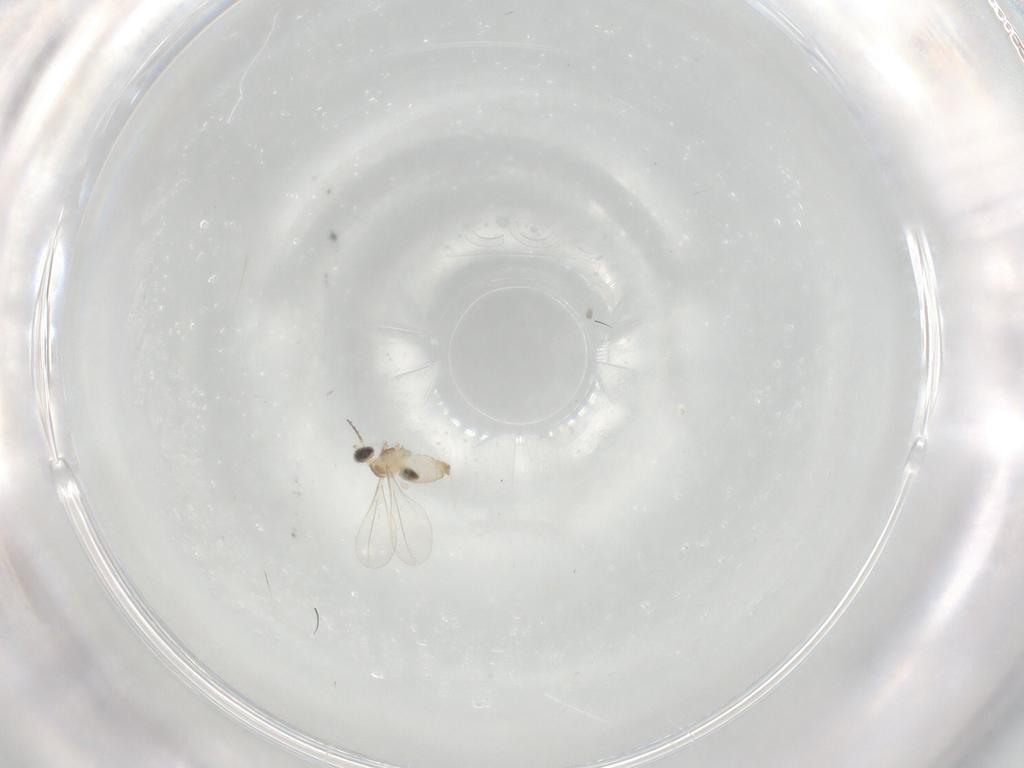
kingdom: Animalia
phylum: Arthropoda
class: Insecta
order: Diptera
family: Cecidomyiidae
